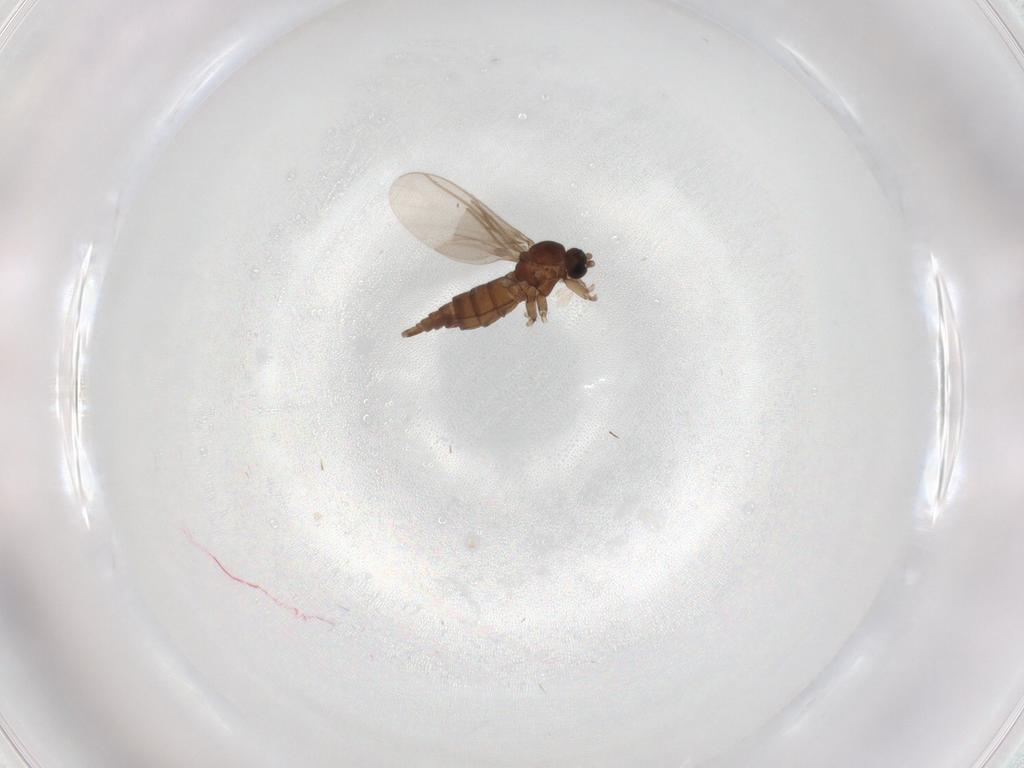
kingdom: Animalia
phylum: Arthropoda
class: Insecta
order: Diptera
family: Sciaridae
